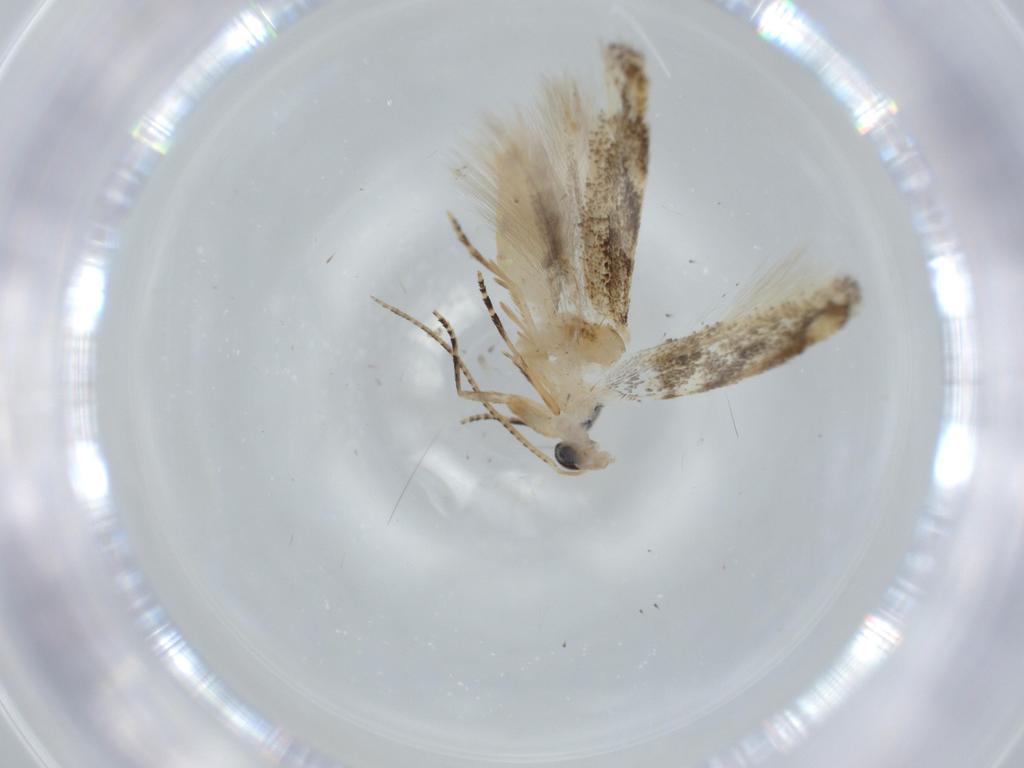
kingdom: Animalia
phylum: Arthropoda
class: Insecta
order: Lepidoptera
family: Bucculatricidae
